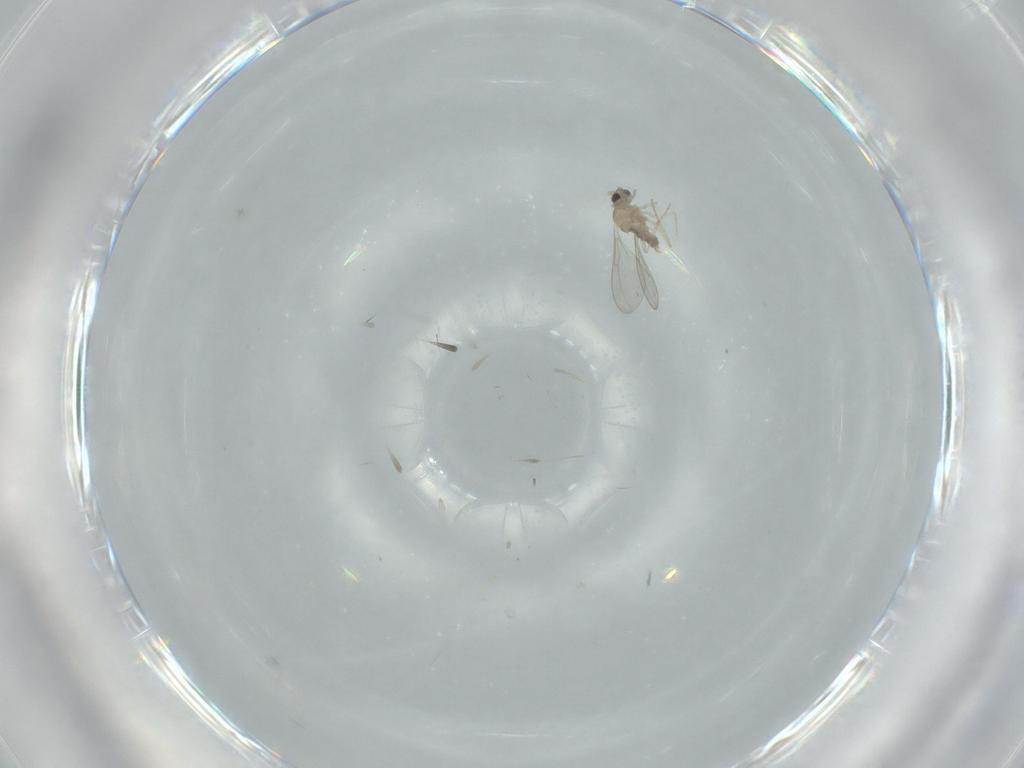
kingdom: Animalia
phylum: Arthropoda
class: Insecta
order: Diptera
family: Cecidomyiidae
